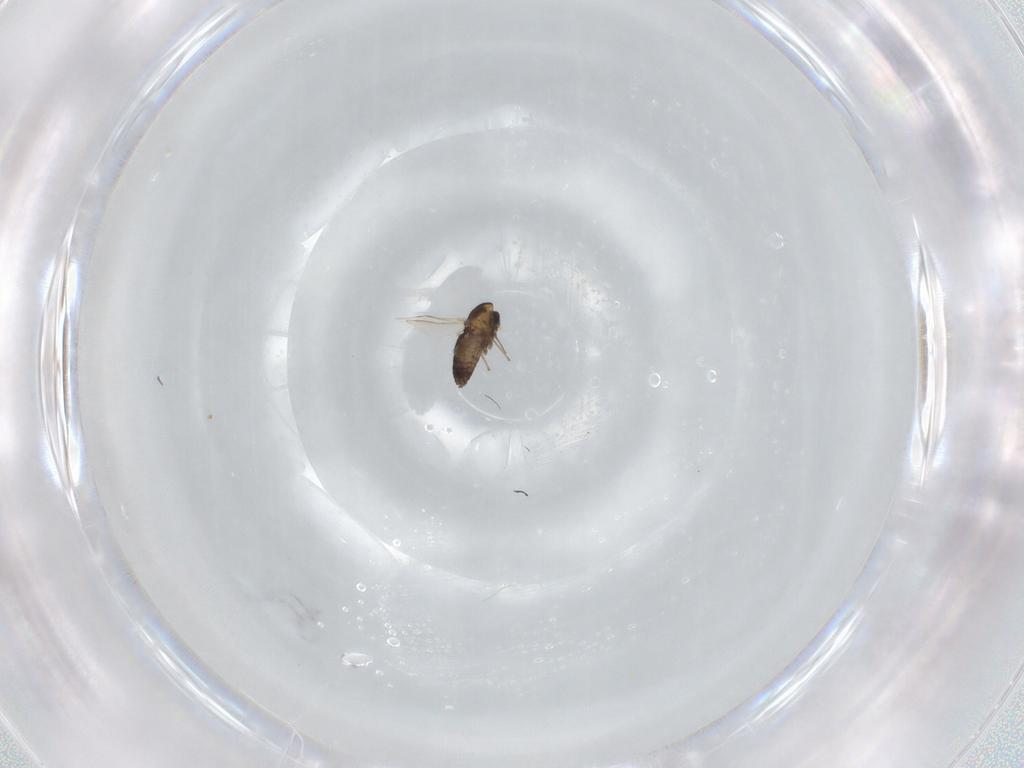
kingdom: Animalia
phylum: Arthropoda
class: Insecta
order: Diptera
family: Chironomidae
